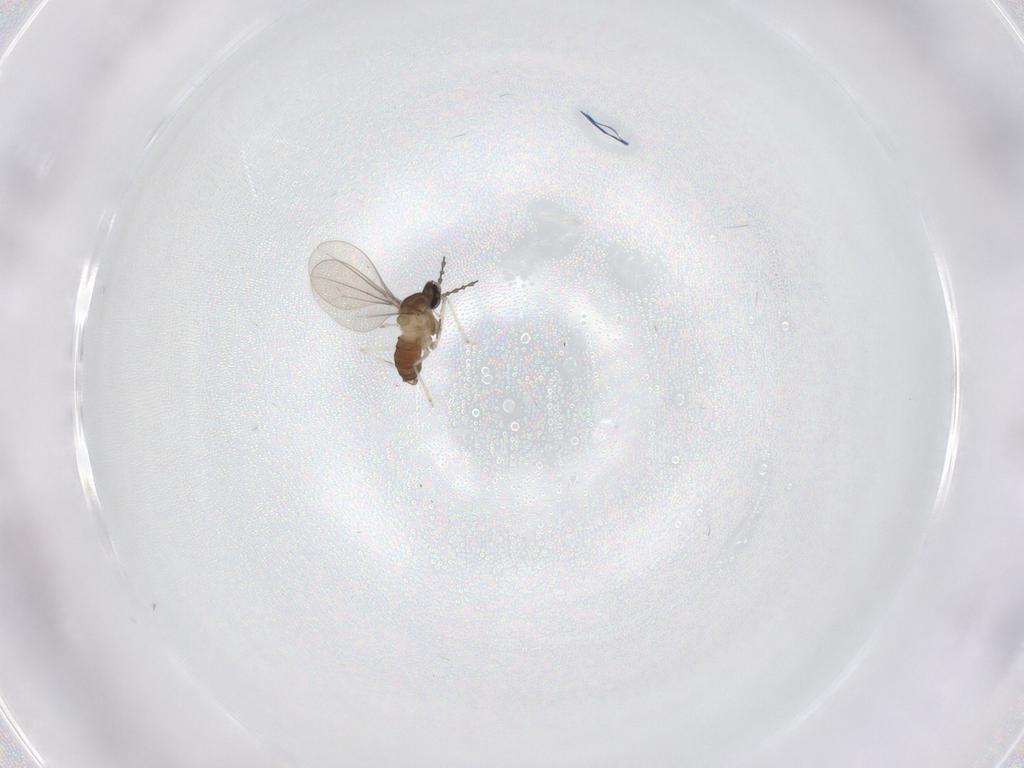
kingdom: Animalia
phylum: Arthropoda
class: Insecta
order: Diptera
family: Cecidomyiidae
